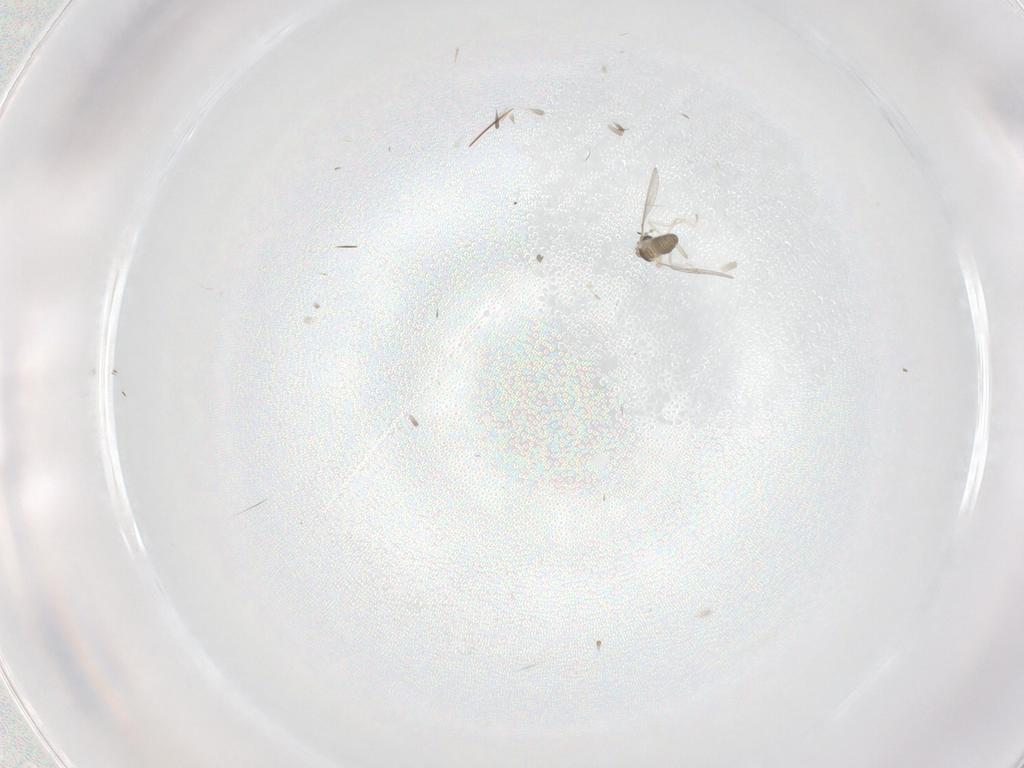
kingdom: Animalia
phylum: Arthropoda
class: Insecta
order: Diptera
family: Cecidomyiidae
